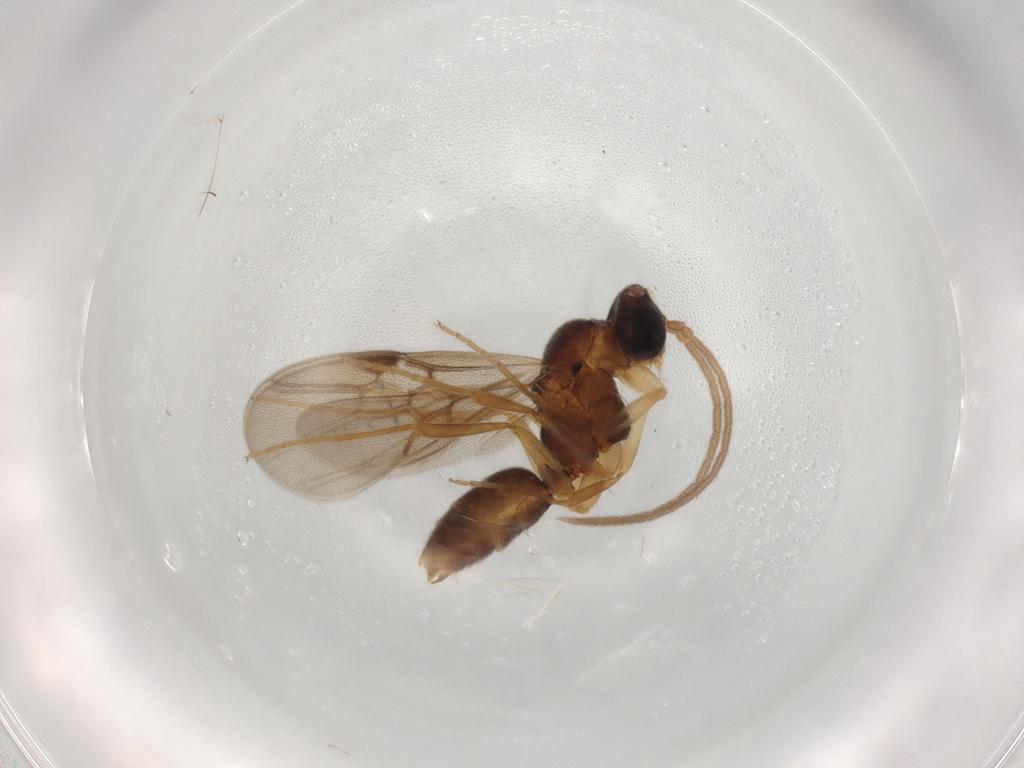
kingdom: Animalia
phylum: Arthropoda
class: Insecta
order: Hymenoptera
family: Formicidae
